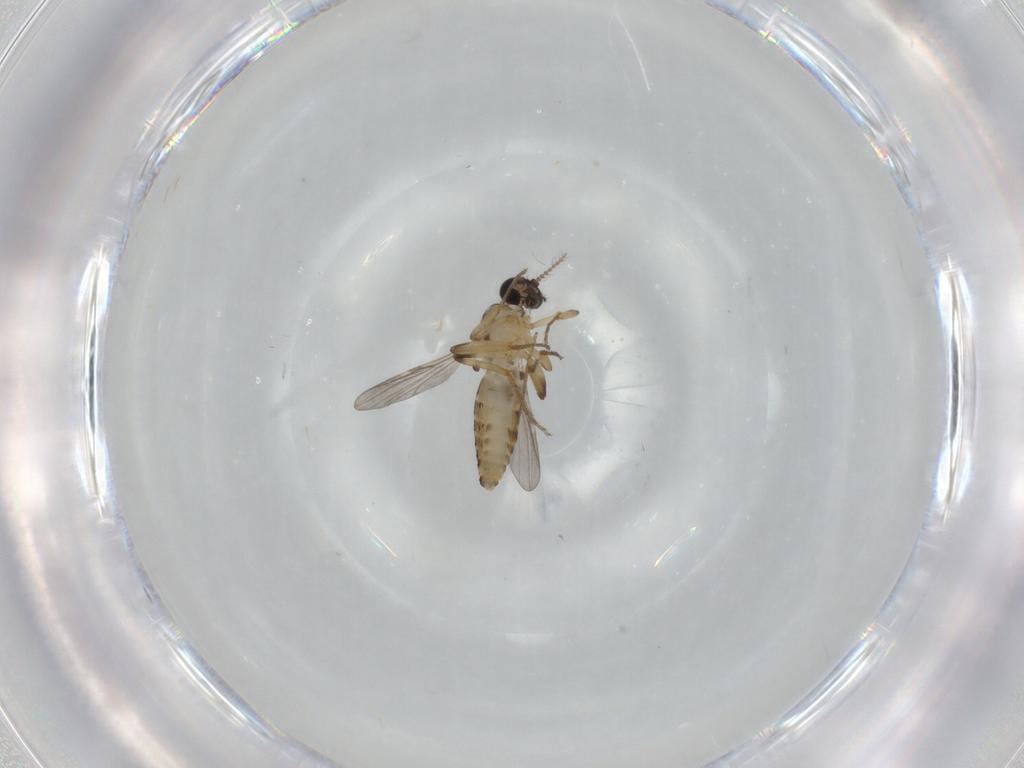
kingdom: Animalia
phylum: Arthropoda
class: Insecta
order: Diptera
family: Ceratopogonidae
